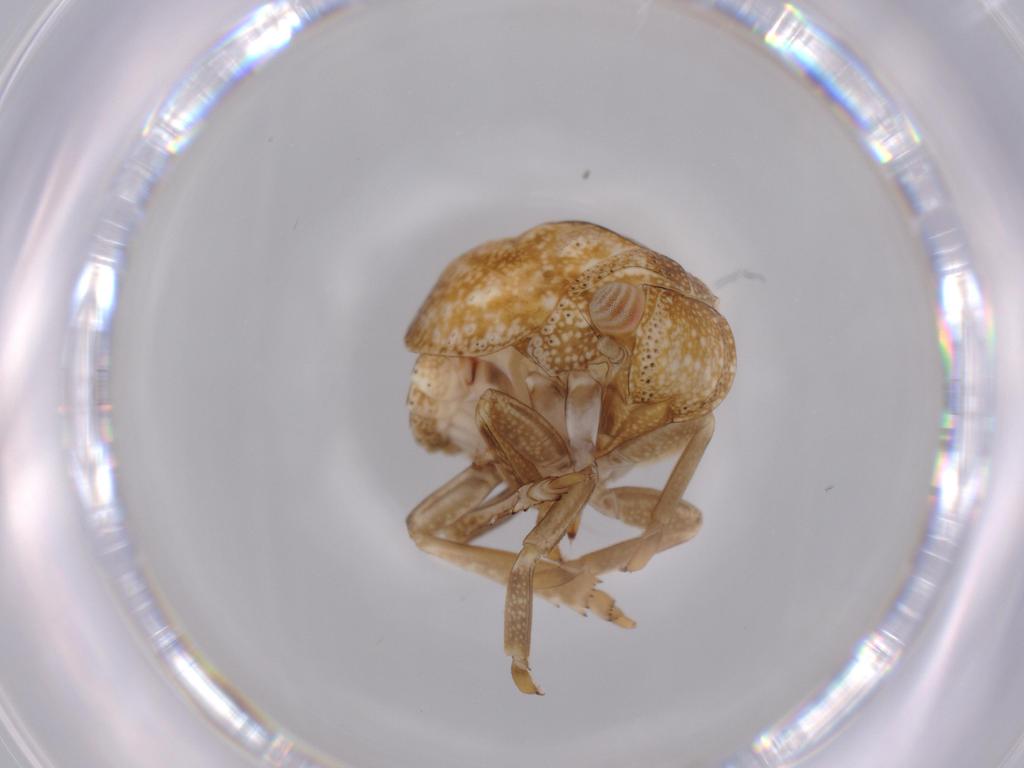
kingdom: Animalia
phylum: Arthropoda
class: Insecta
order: Hemiptera
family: Acanaloniidae
